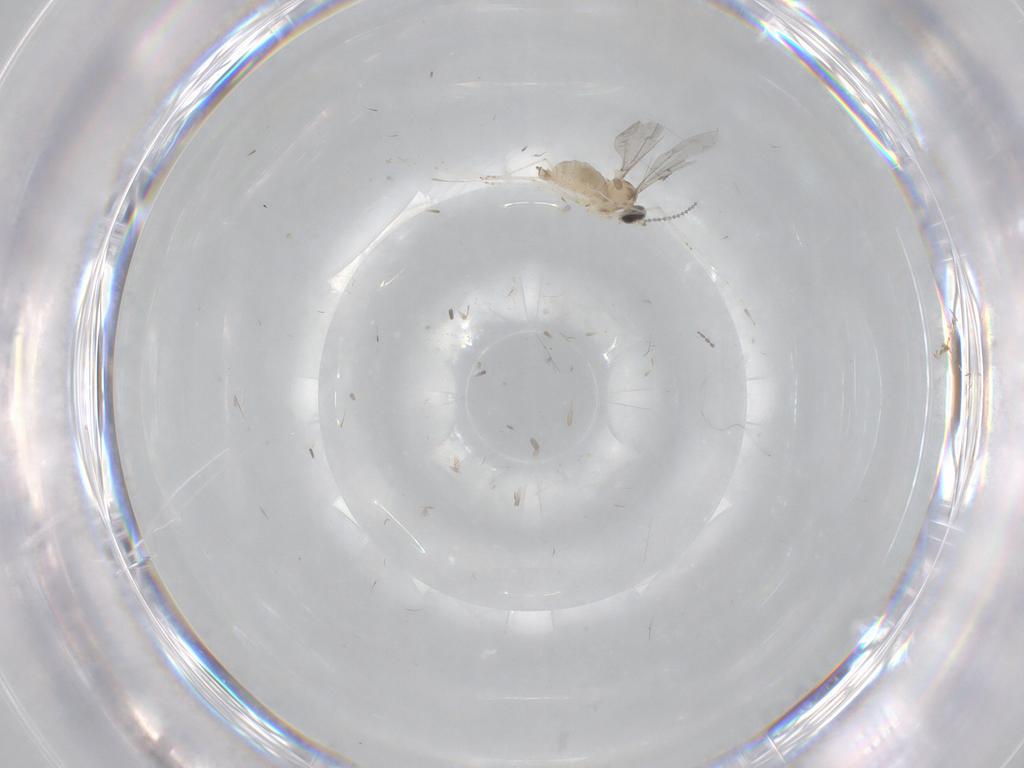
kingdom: Animalia
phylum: Arthropoda
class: Insecta
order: Diptera
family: Cecidomyiidae
